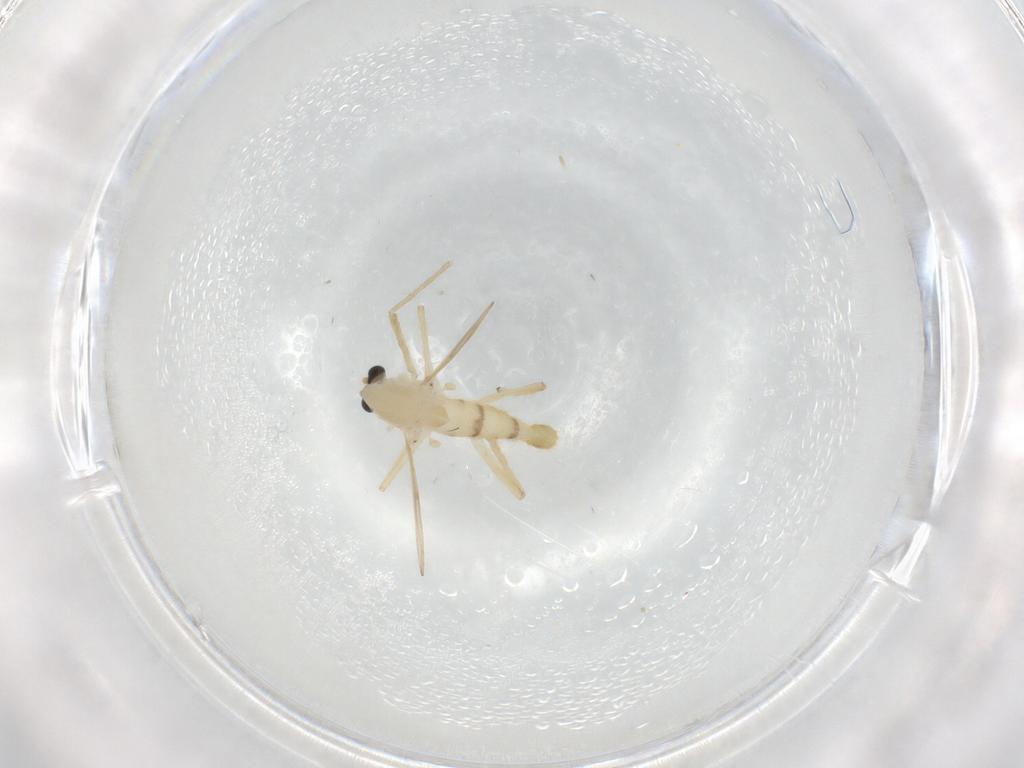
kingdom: Animalia
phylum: Arthropoda
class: Insecta
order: Diptera
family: Chironomidae
